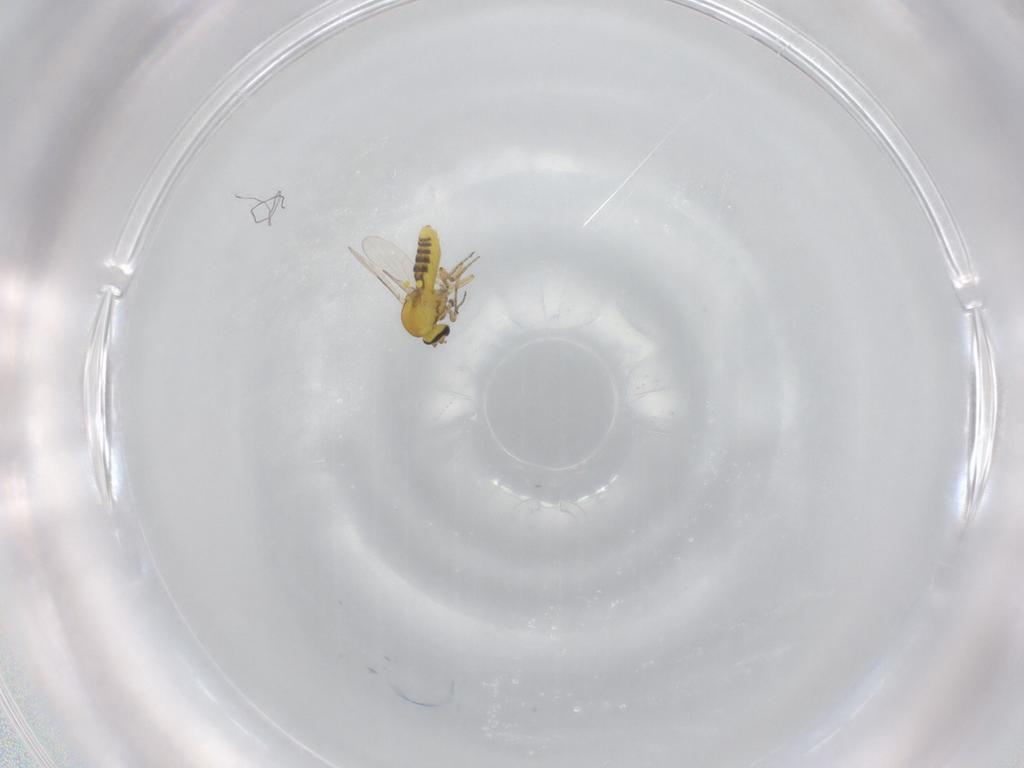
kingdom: Animalia
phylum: Arthropoda
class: Insecta
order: Diptera
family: Ceratopogonidae
